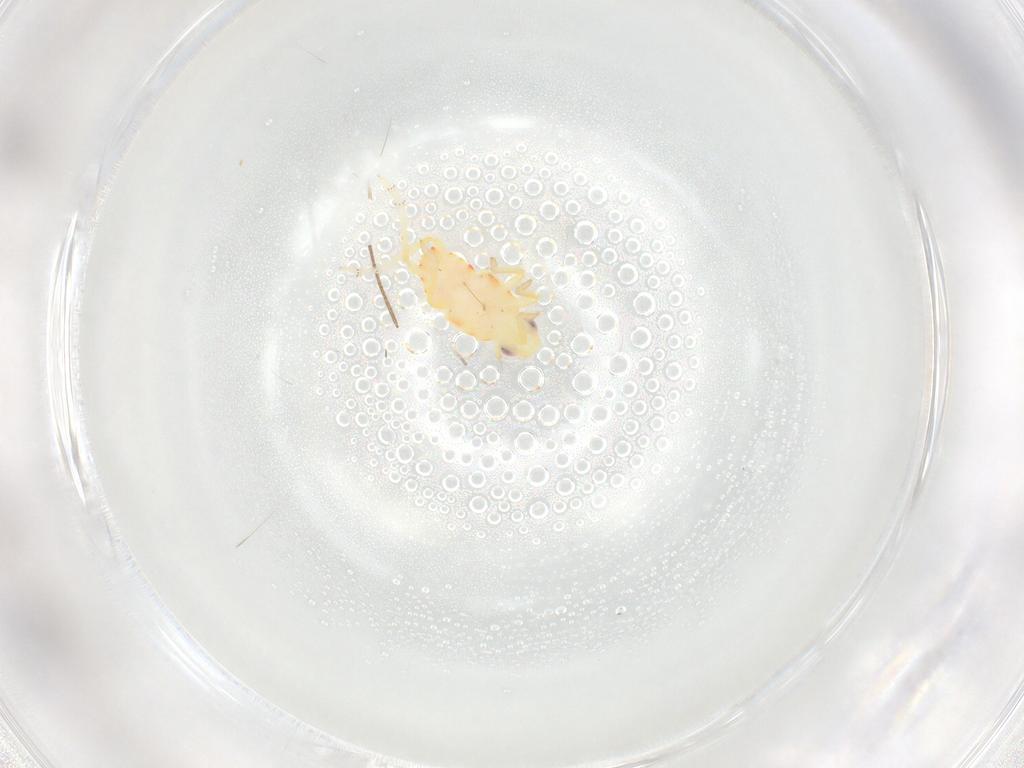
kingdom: Animalia
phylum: Arthropoda
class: Insecta
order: Hemiptera
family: Tropiduchidae
